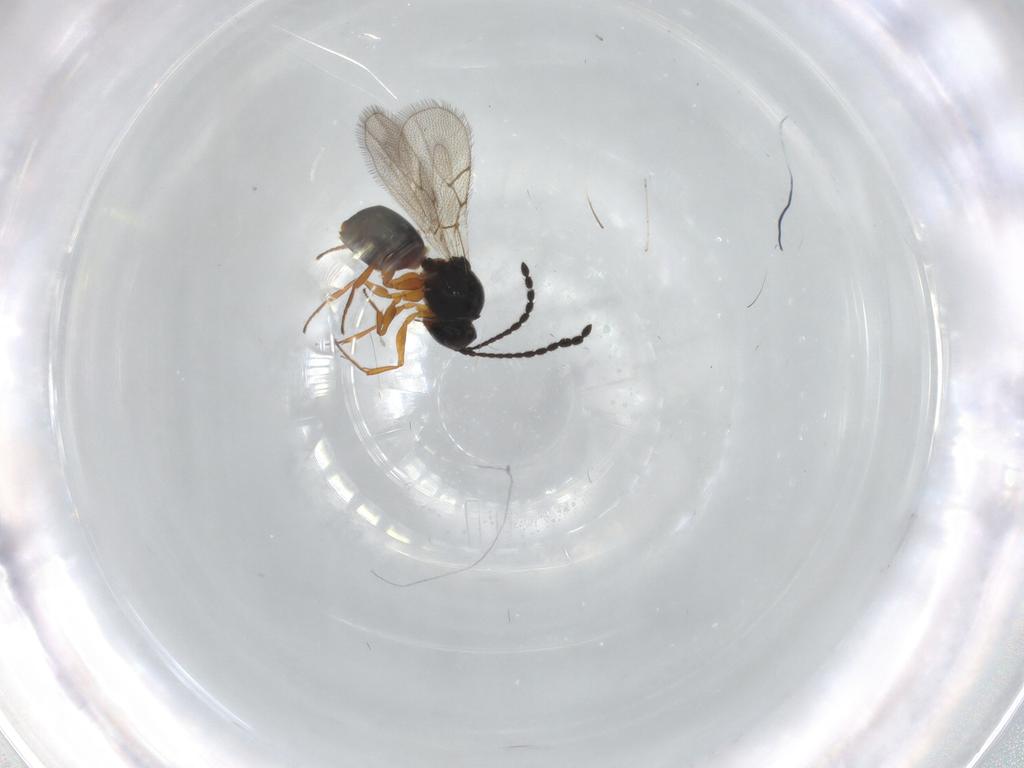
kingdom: Animalia
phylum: Arthropoda
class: Insecta
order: Hymenoptera
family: Figitidae
